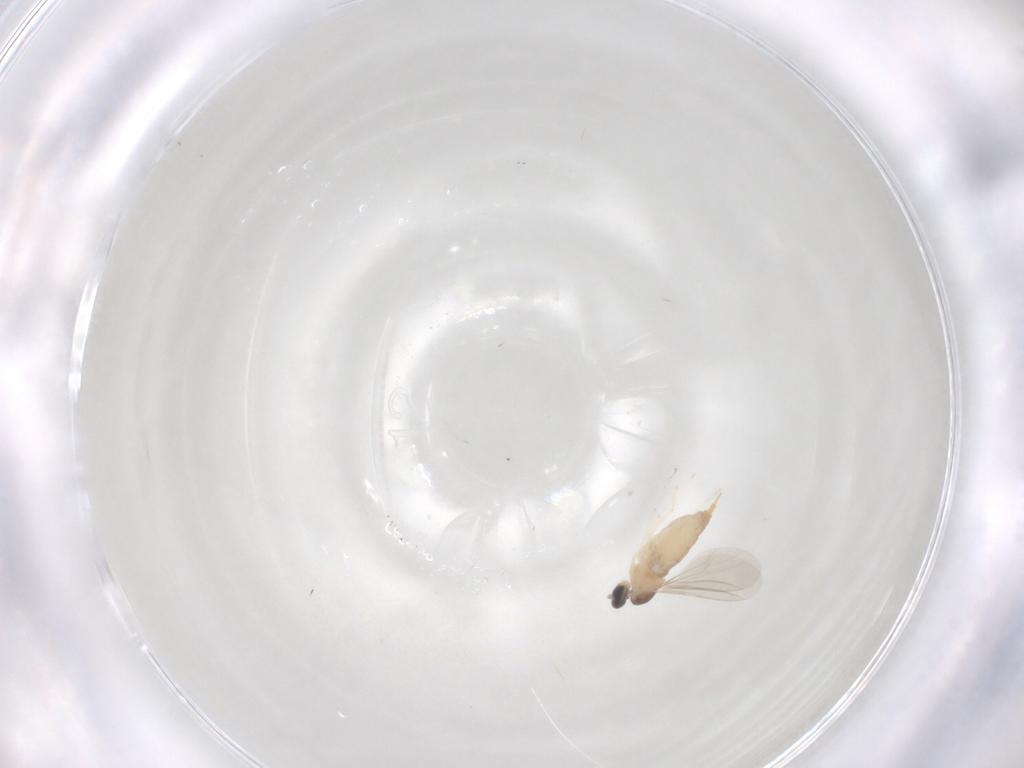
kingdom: Animalia
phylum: Arthropoda
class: Insecta
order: Diptera
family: Cecidomyiidae
